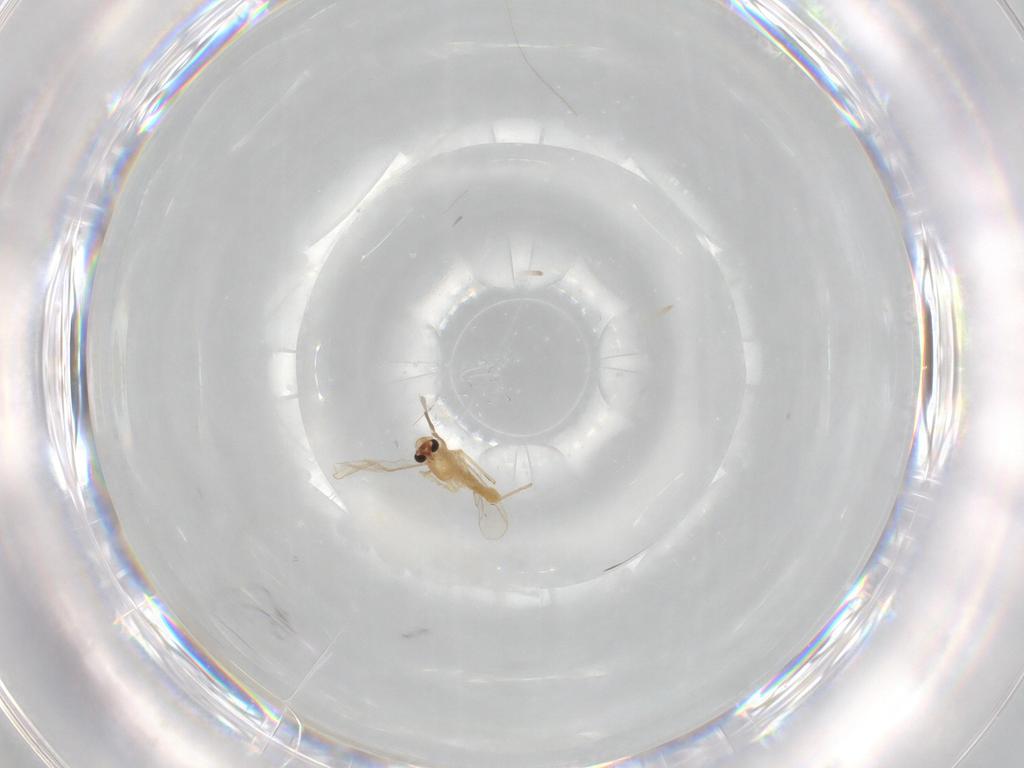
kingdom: Animalia
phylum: Arthropoda
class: Insecta
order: Diptera
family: Chironomidae
